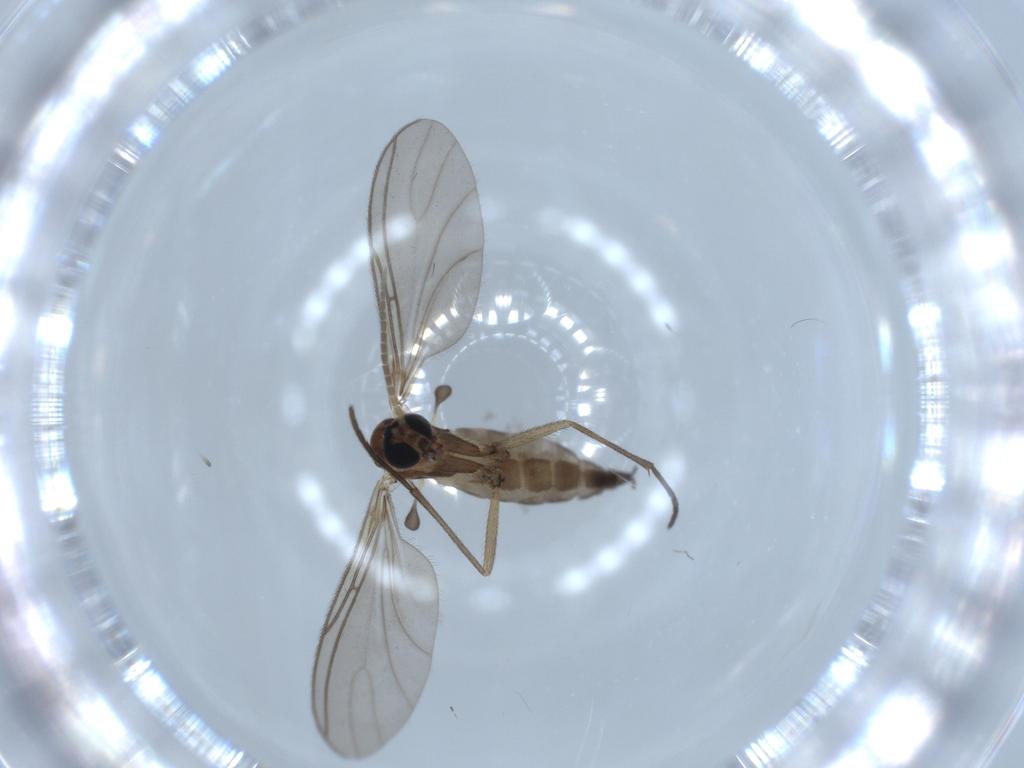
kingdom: Animalia
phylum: Arthropoda
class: Insecta
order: Diptera
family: Sciaridae
